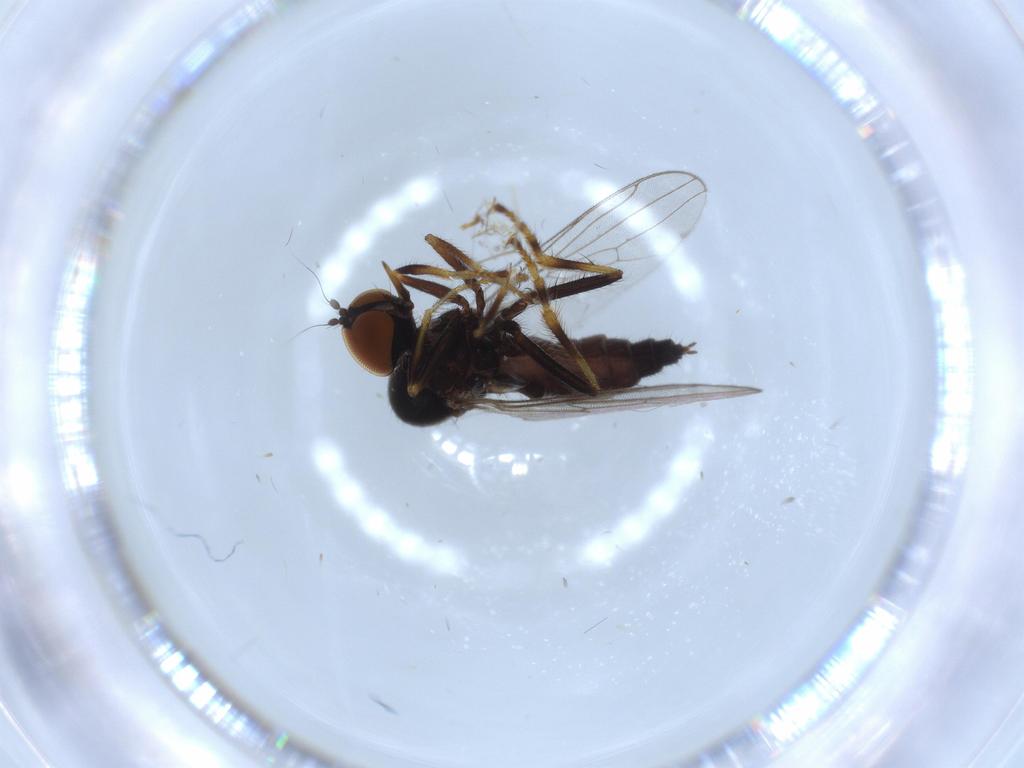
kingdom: Animalia
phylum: Arthropoda
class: Insecta
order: Diptera
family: Hybotidae
